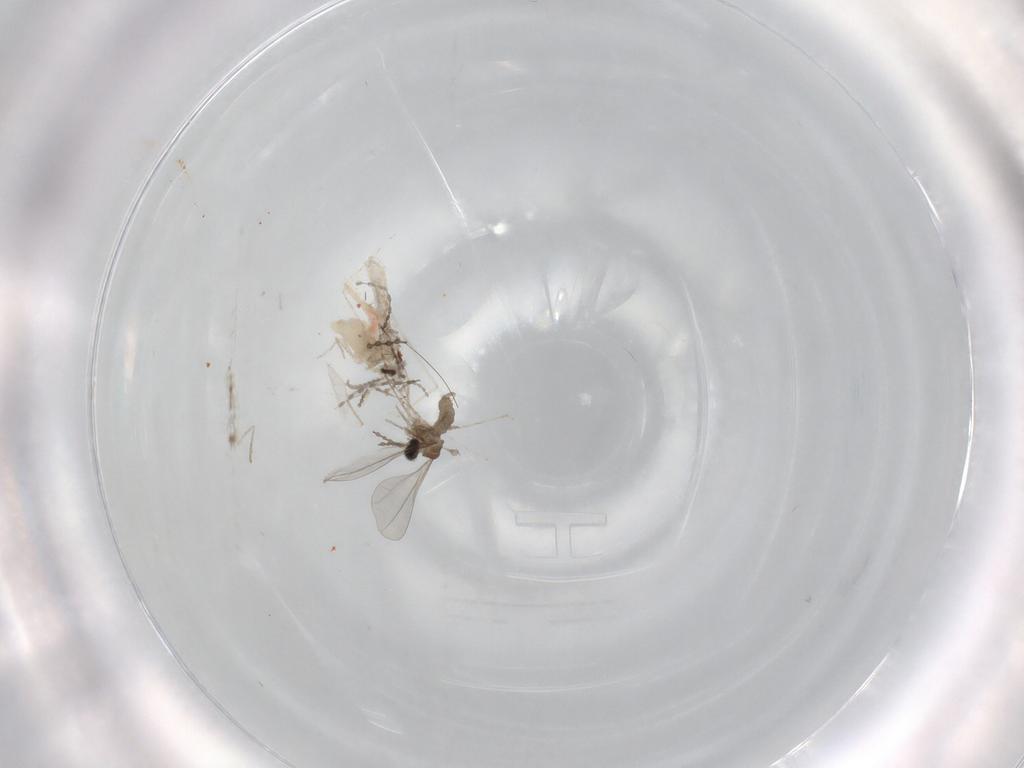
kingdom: Animalia
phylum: Arthropoda
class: Insecta
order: Diptera
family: Cecidomyiidae
